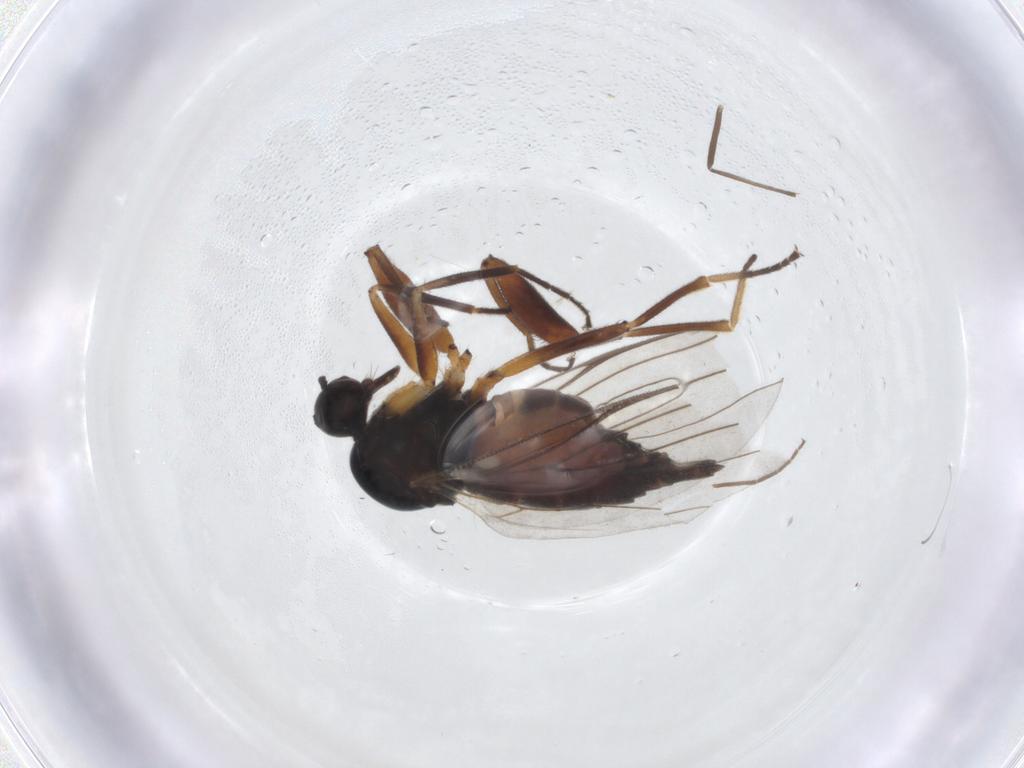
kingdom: Animalia
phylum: Arthropoda
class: Insecta
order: Diptera
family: Hybotidae
